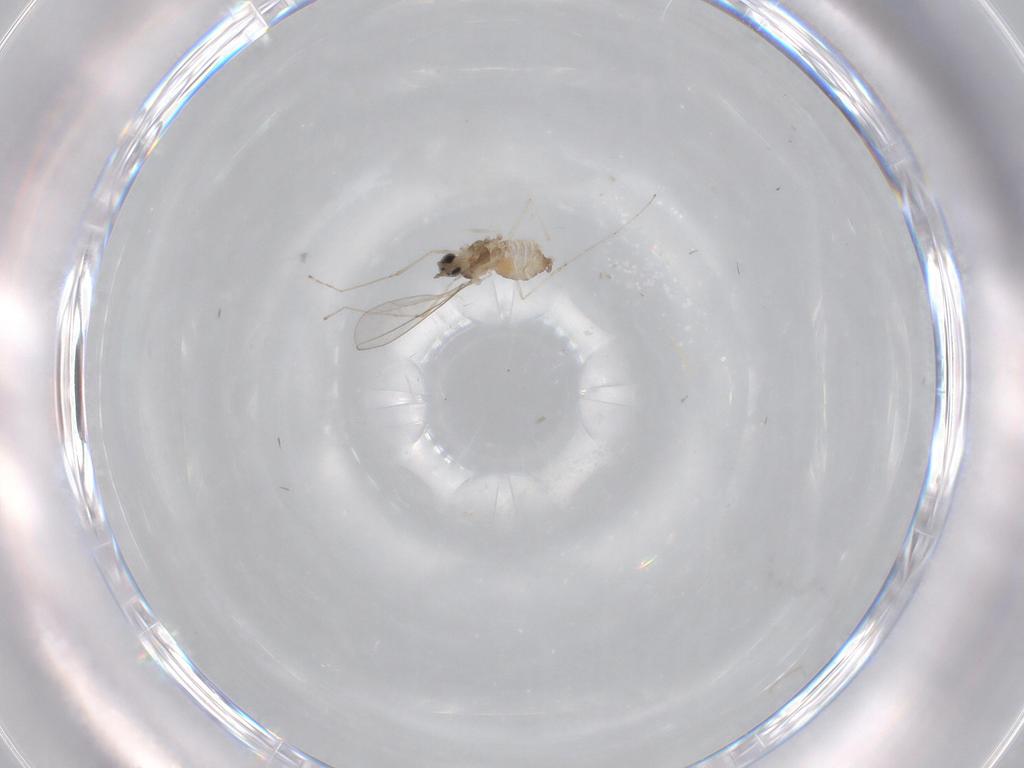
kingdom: Animalia
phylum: Arthropoda
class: Insecta
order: Diptera
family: Cecidomyiidae
